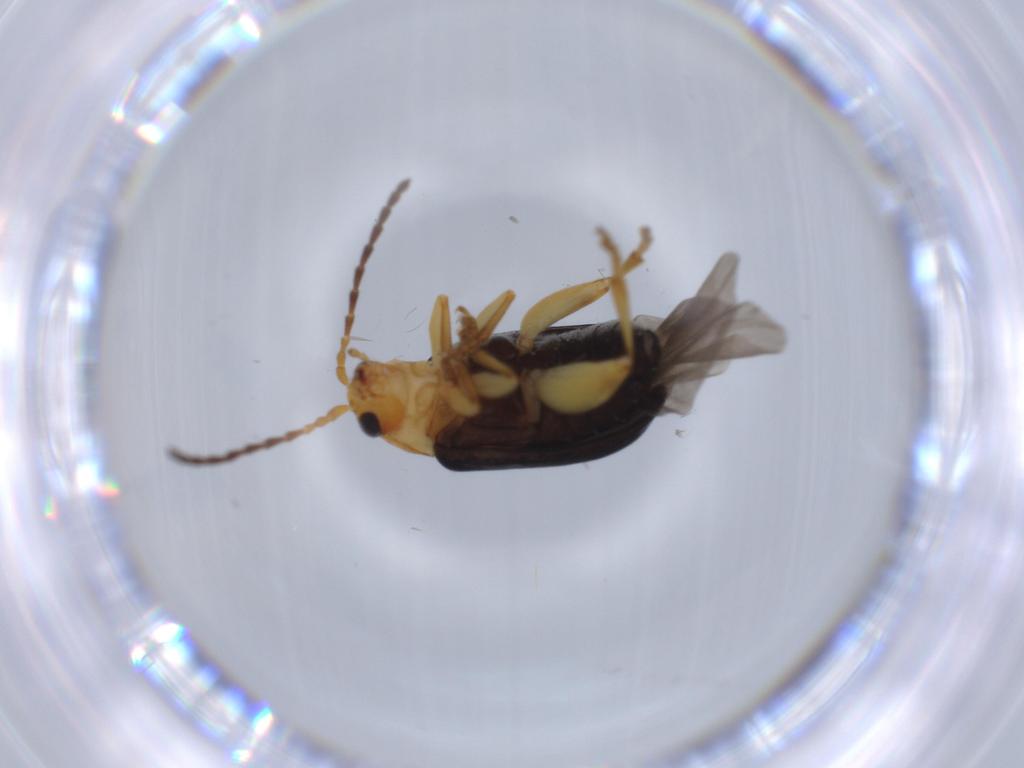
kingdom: Animalia
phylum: Arthropoda
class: Insecta
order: Coleoptera
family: Chrysomelidae
